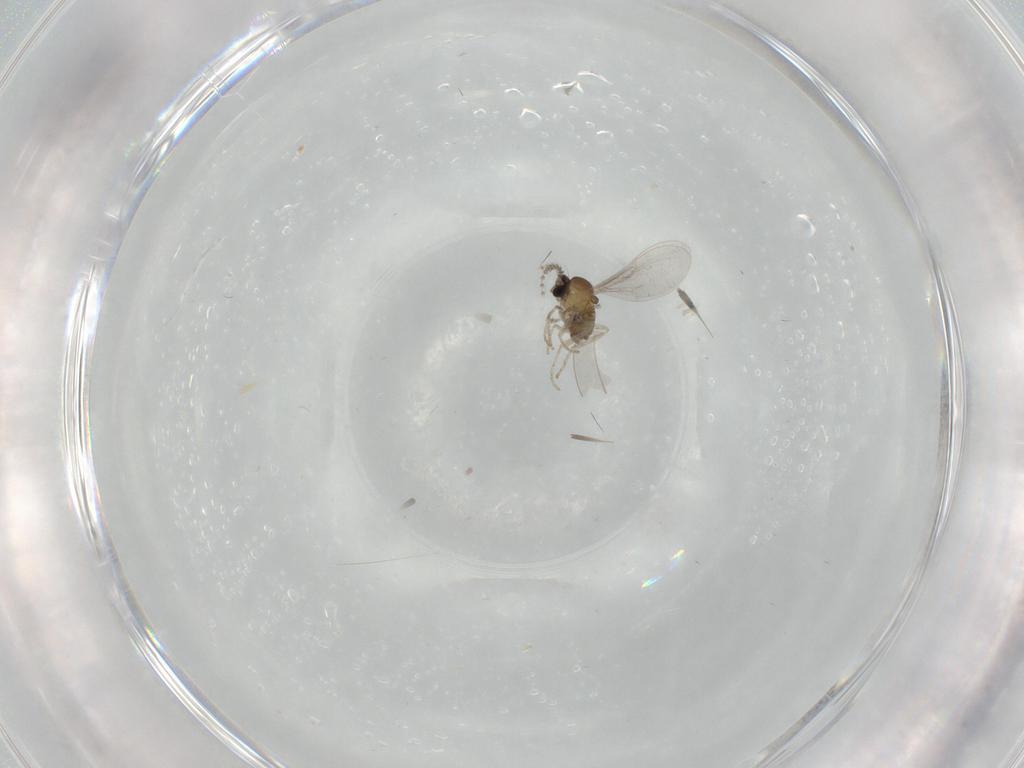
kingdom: Animalia
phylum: Arthropoda
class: Insecta
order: Diptera
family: Cecidomyiidae
